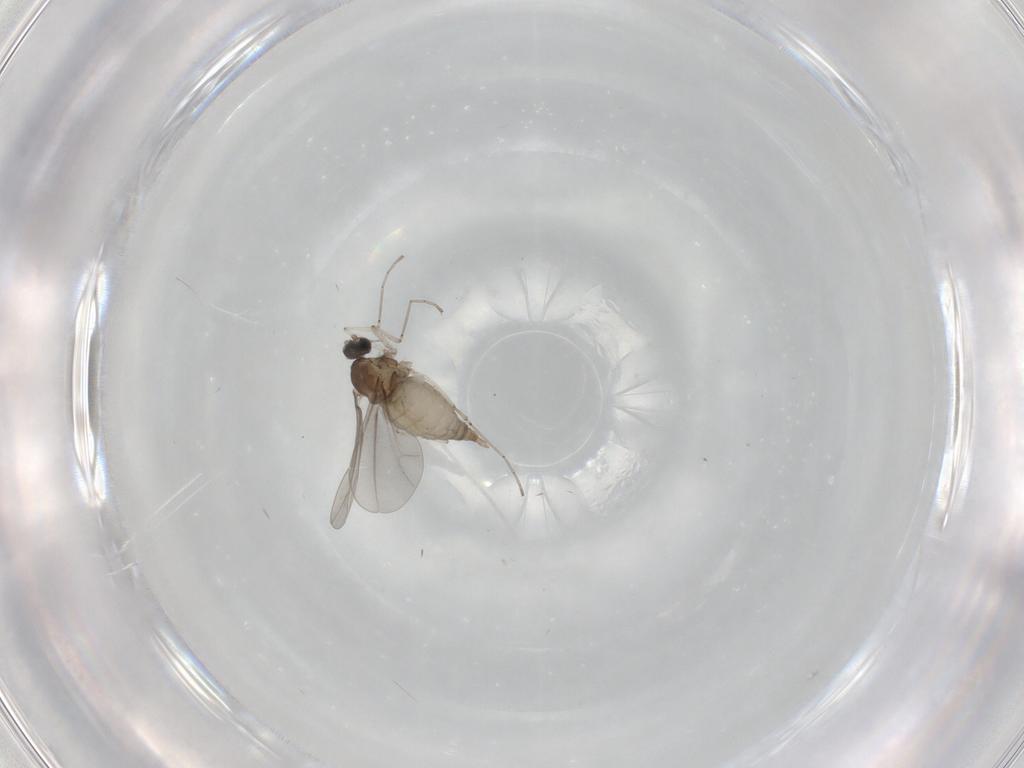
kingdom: Animalia
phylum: Arthropoda
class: Insecta
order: Diptera
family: Cecidomyiidae
